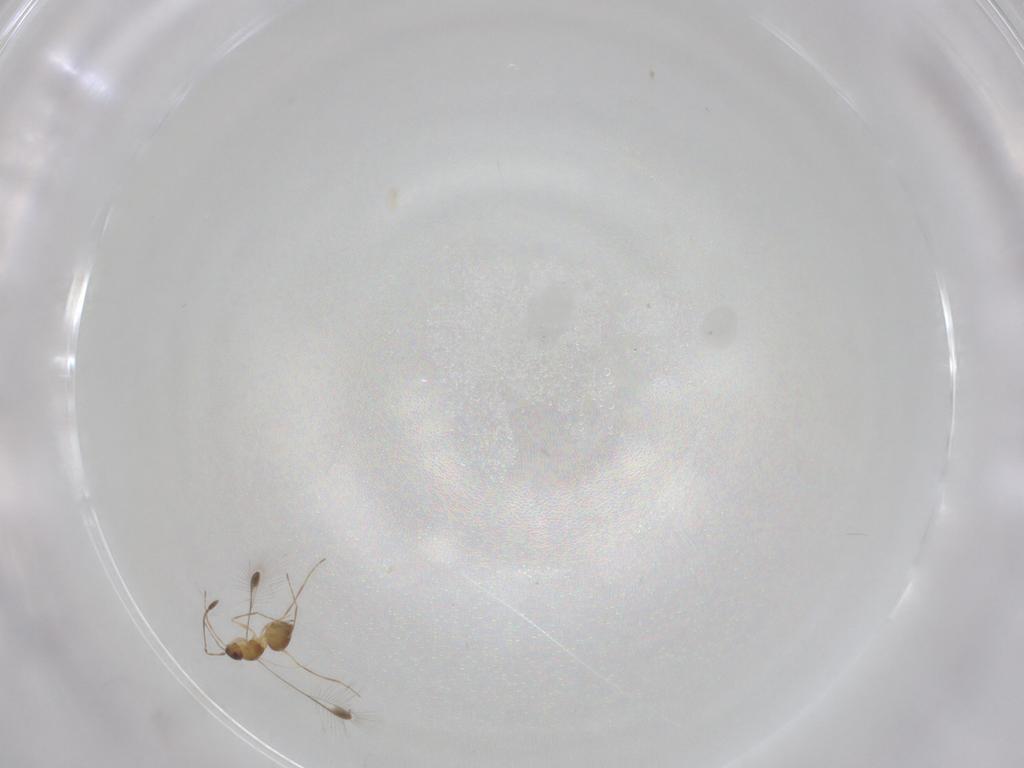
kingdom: Animalia
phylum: Arthropoda
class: Insecta
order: Hymenoptera
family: Mymaridae
